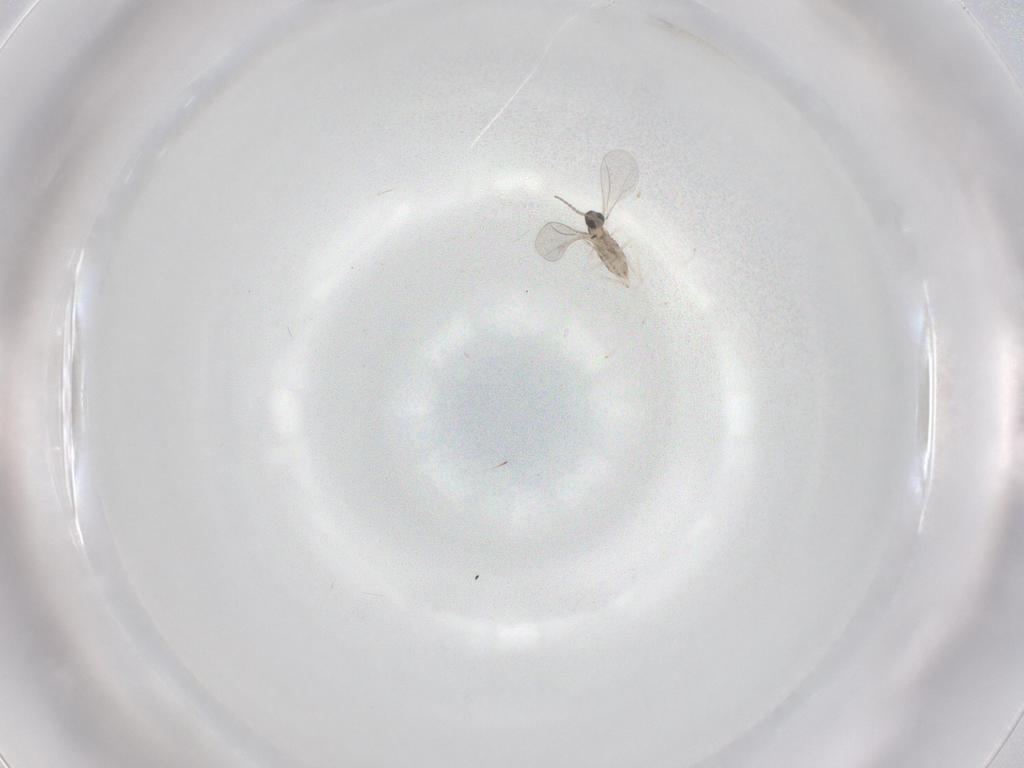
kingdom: Animalia
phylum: Arthropoda
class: Insecta
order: Diptera
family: Cecidomyiidae
